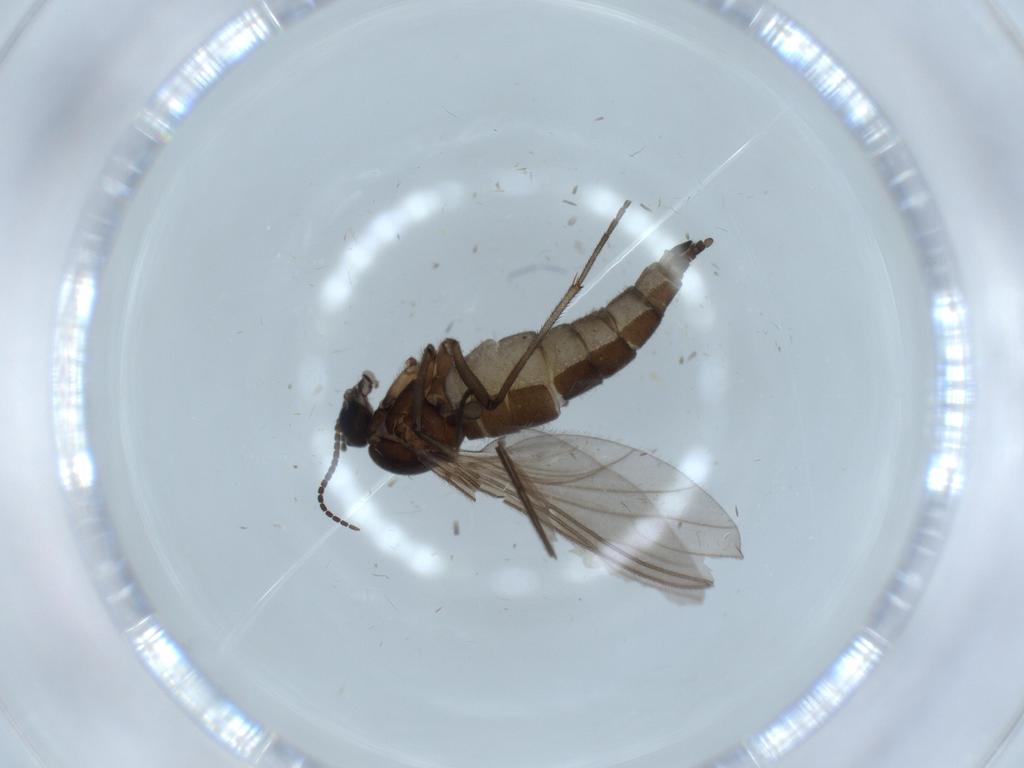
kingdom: Animalia
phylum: Arthropoda
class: Insecta
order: Diptera
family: Sciaridae
